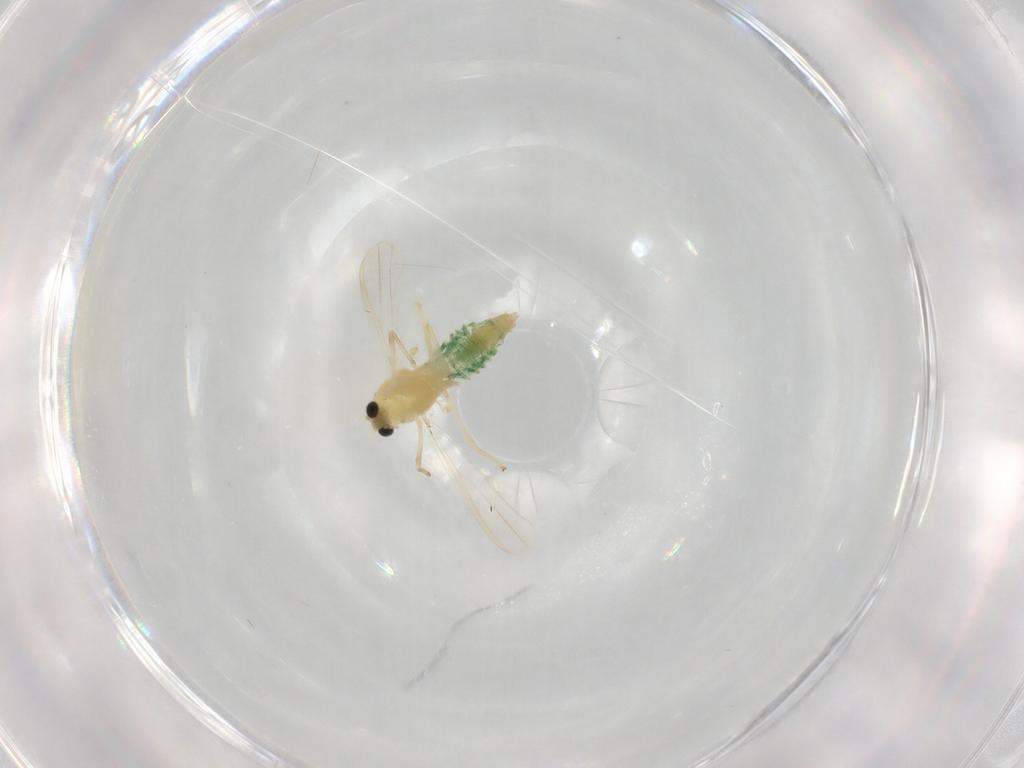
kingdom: Animalia
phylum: Arthropoda
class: Insecta
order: Diptera
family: Chironomidae
